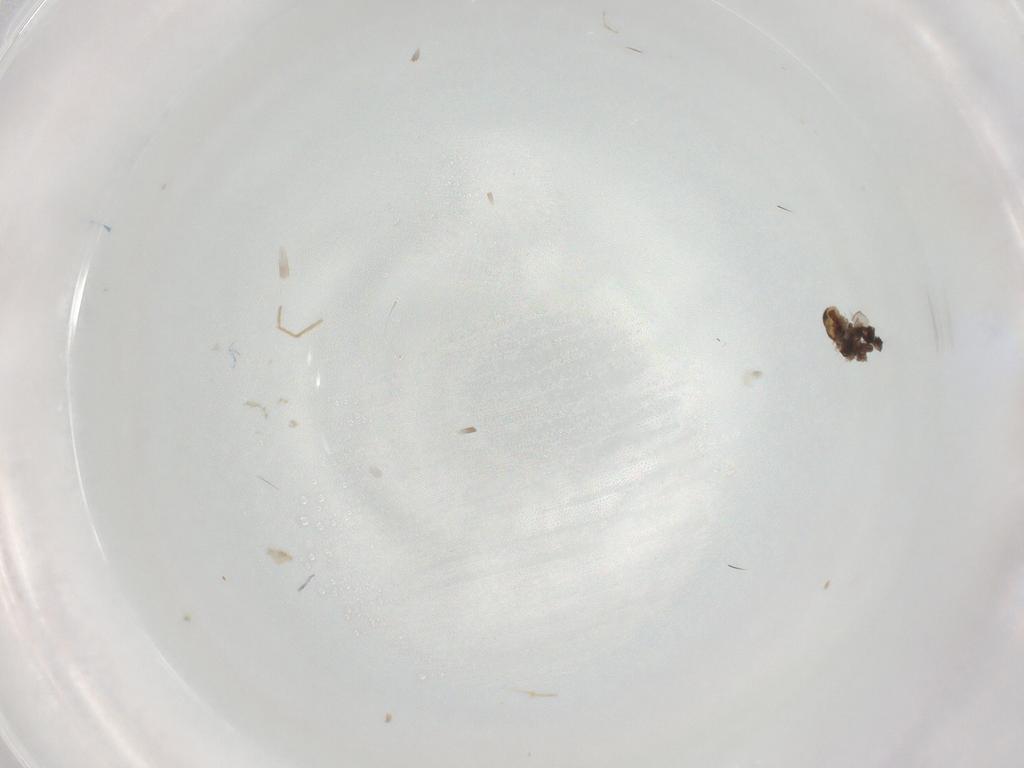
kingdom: Animalia
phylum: Arthropoda
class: Insecta
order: Diptera
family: Chironomidae
